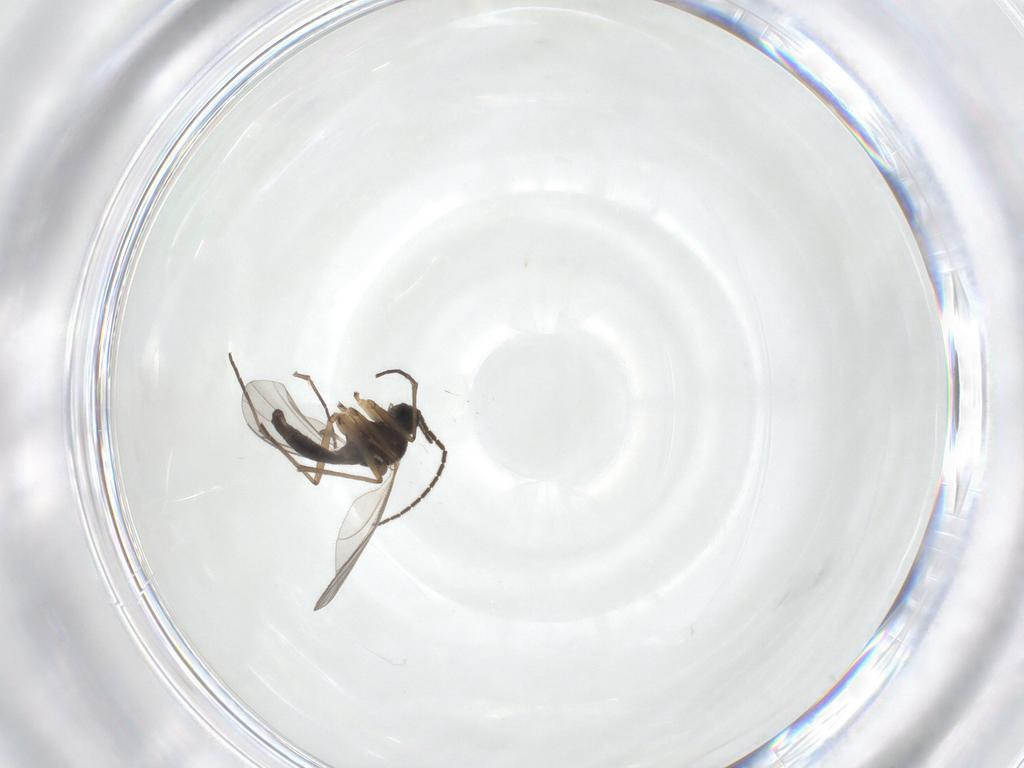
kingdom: Animalia
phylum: Arthropoda
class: Insecta
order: Diptera
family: Sciaridae
